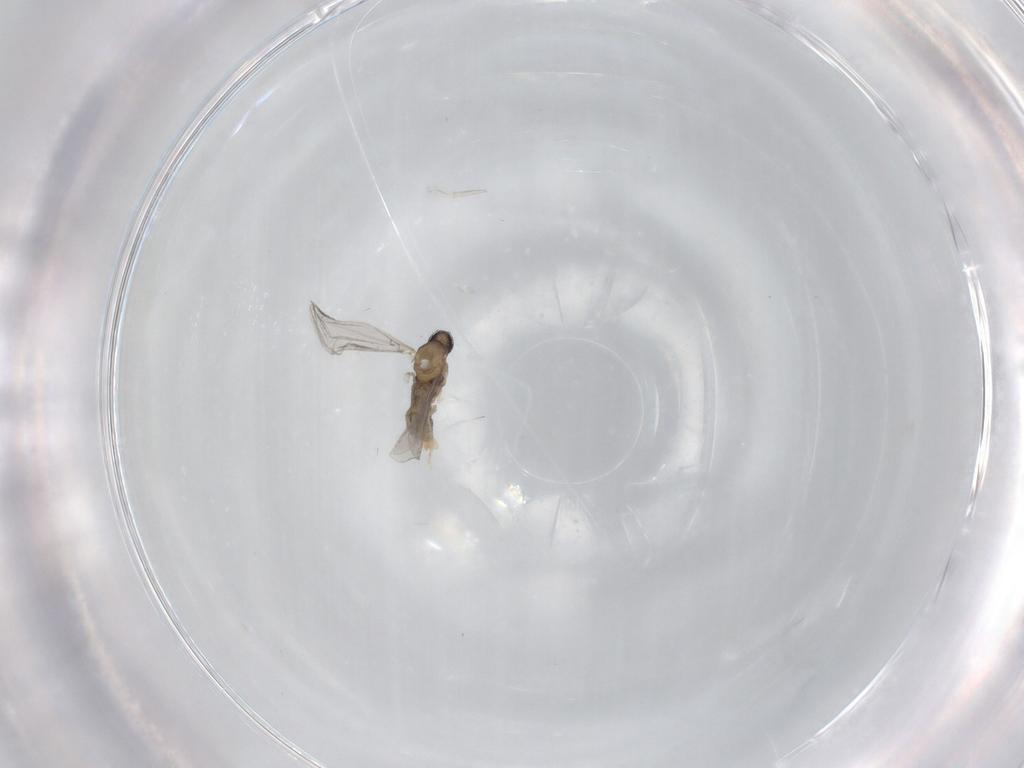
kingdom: Animalia
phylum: Arthropoda
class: Insecta
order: Diptera
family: Cecidomyiidae
